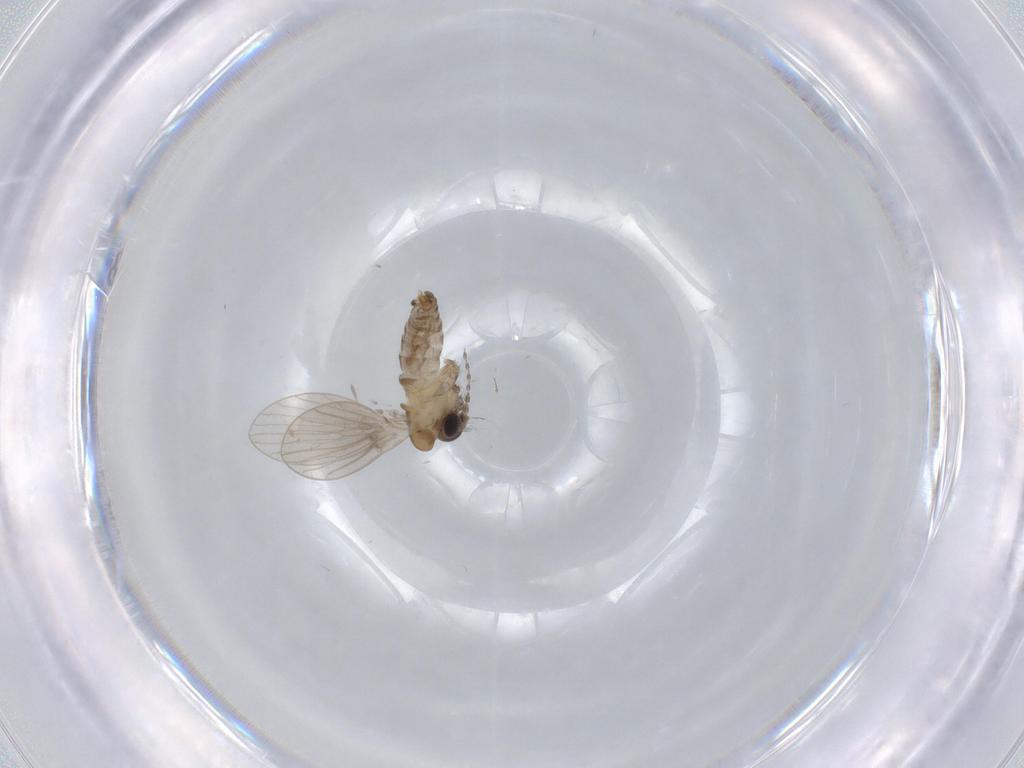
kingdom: Animalia
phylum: Arthropoda
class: Insecta
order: Diptera
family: Psychodidae
